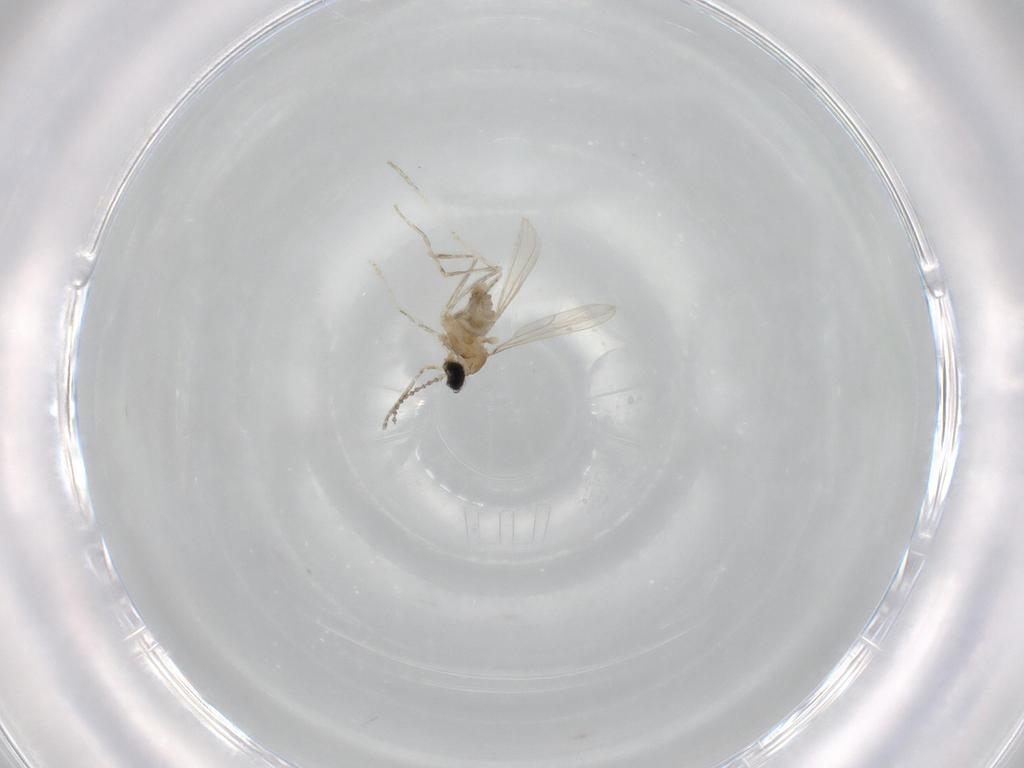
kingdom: Animalia
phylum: Arthropoda
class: Insecta
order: Diptera
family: Cecidomyiidae
